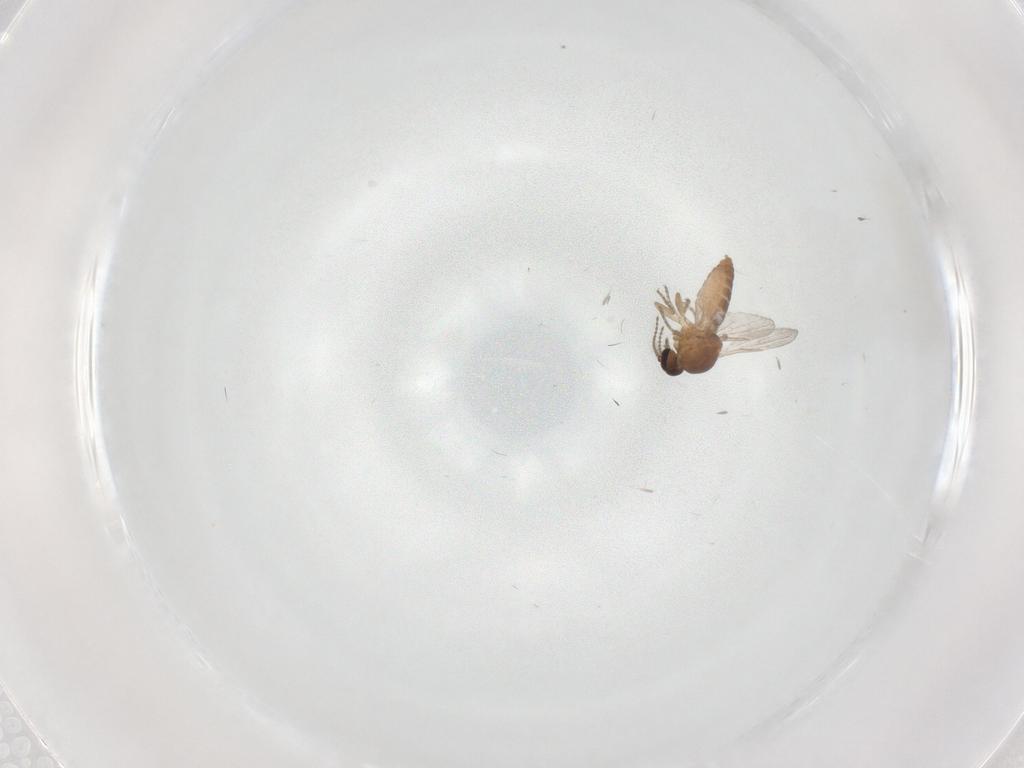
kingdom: Animalia
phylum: Arthropoda
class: Insecta
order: Diptera
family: Ceratopogonidae
